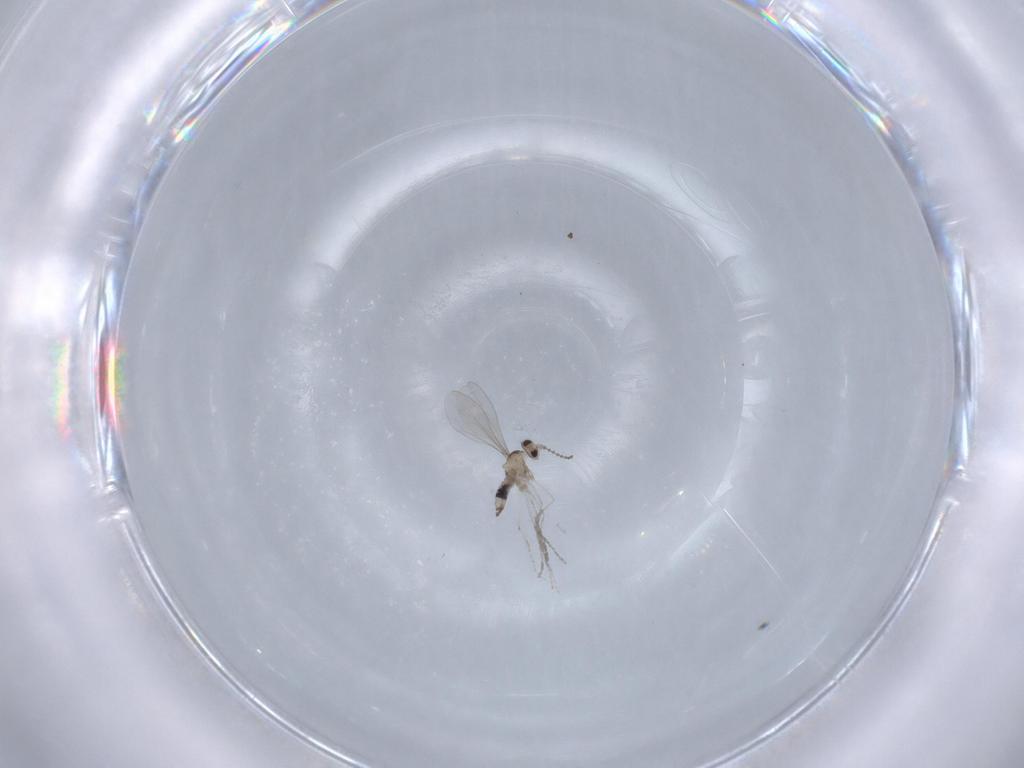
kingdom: Animalia
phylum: Arthropoda
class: Insecta
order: Diptera
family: Cecidomyiidae
